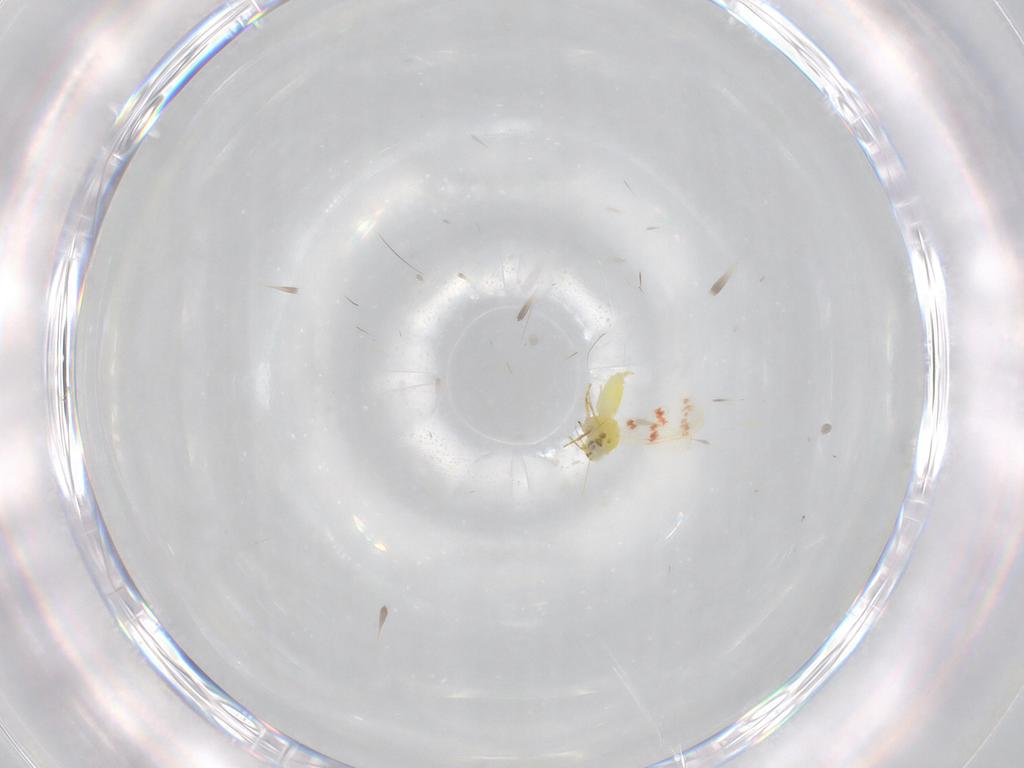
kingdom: Animalia
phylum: Arthropoda
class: Insecta
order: Hemiptera
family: Aleyrodidae
